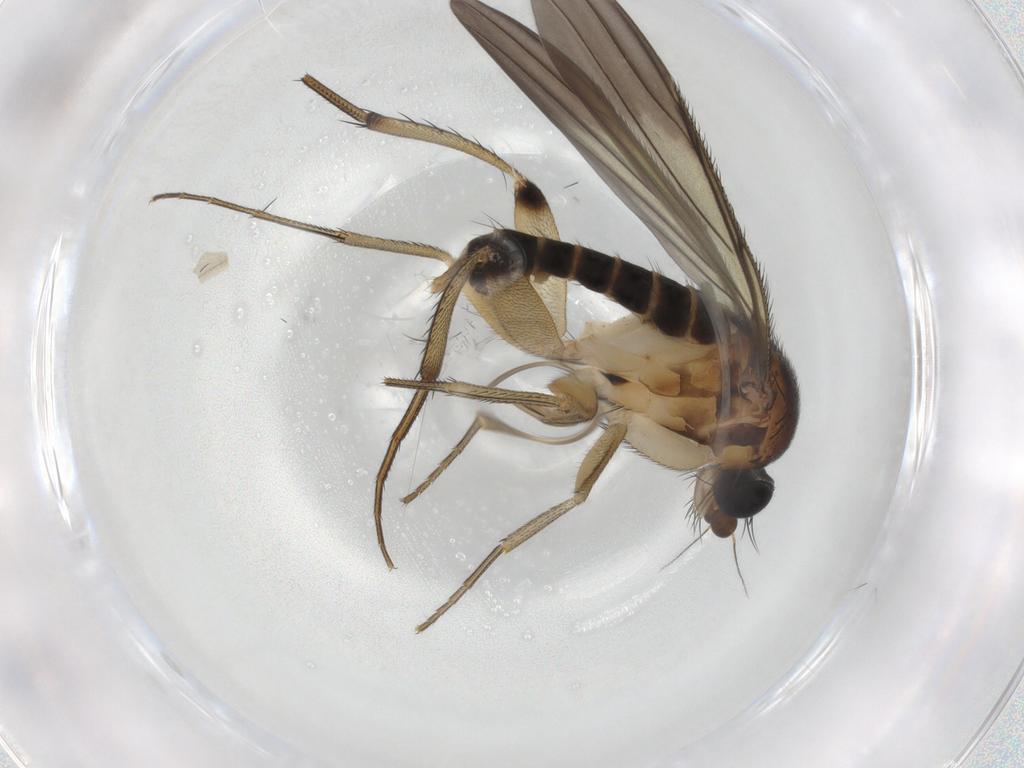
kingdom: Animalia
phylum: Arthropoda
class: Insecta
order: Diptera
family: Phoridae
